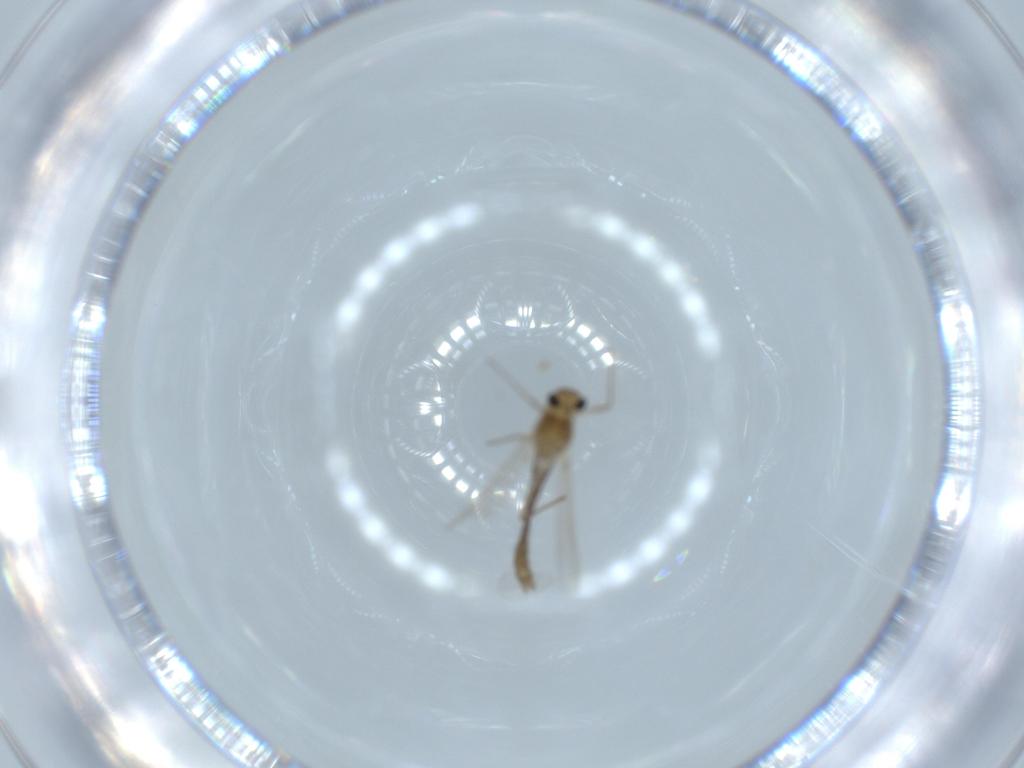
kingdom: Animalia
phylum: Arthropoda
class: Insecta
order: Diptera
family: Chironomidae
